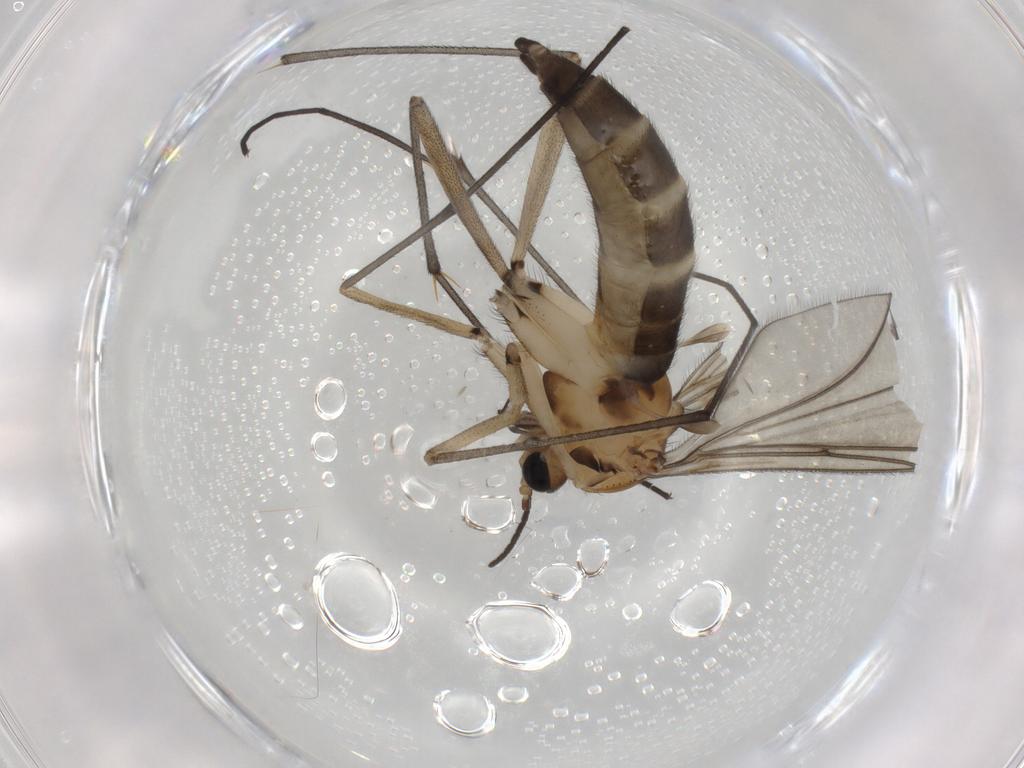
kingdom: Animalia
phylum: Arthropoda
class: Insecta
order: Diptera
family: Sciaridae
